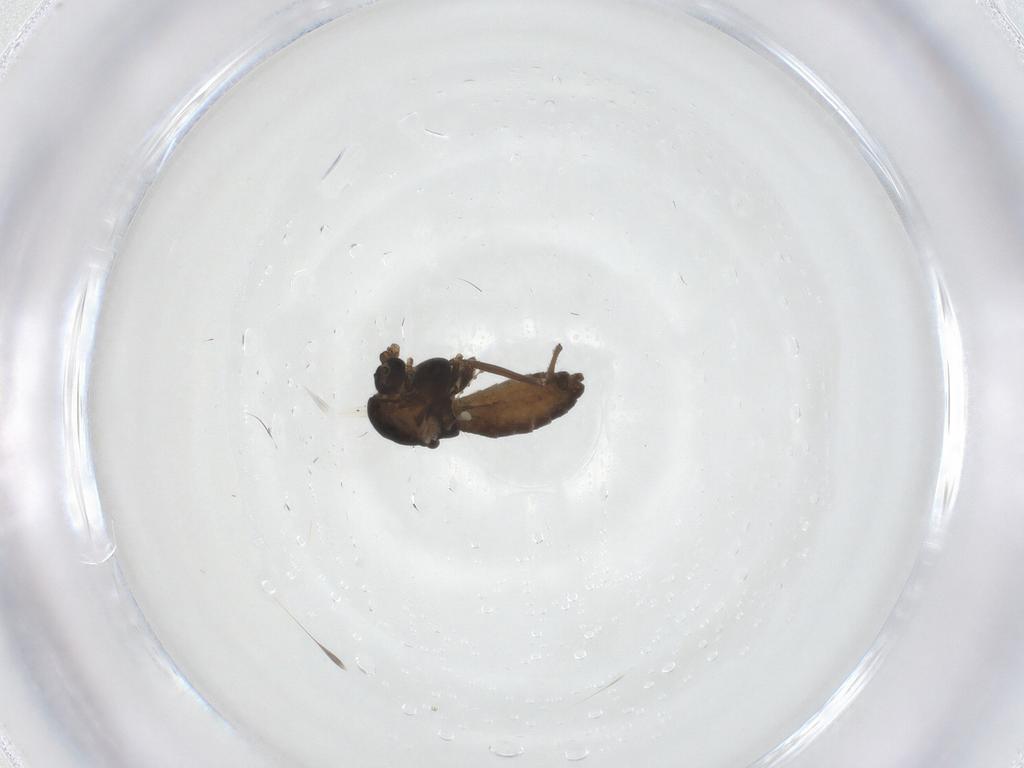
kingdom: Animalia
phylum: Arthropoda
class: Insecta
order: Diptera
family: Chironomidae
